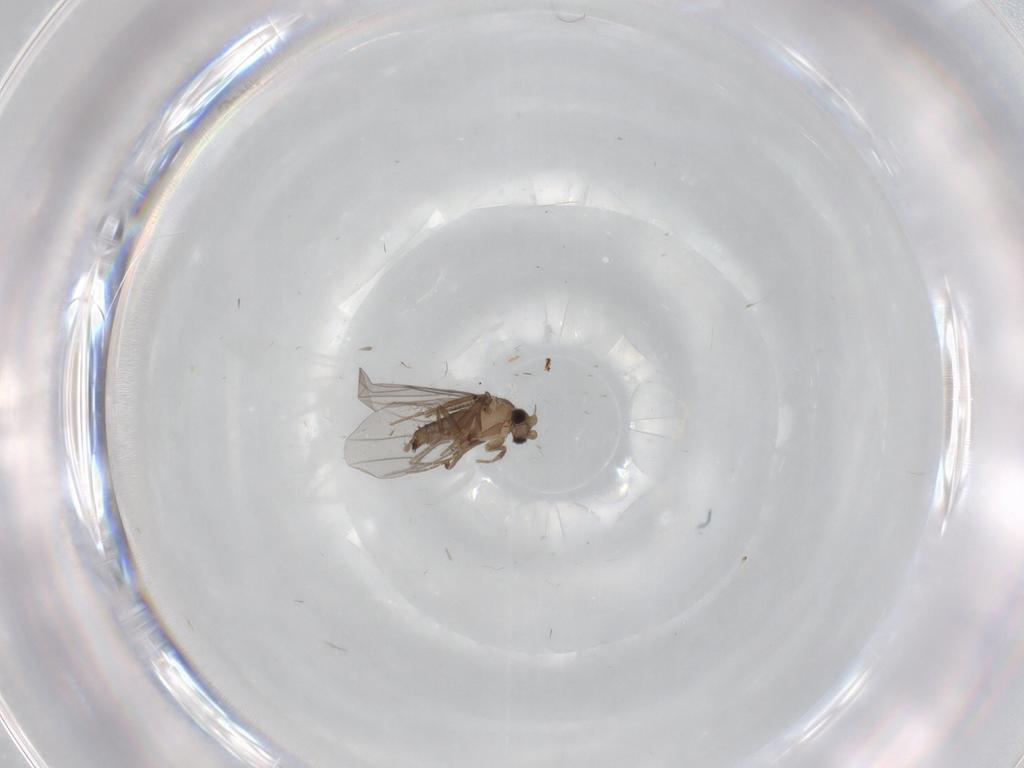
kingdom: Animalia
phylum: Arthropoda
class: Insecta
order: Diptera
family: Ceratopogonidae
